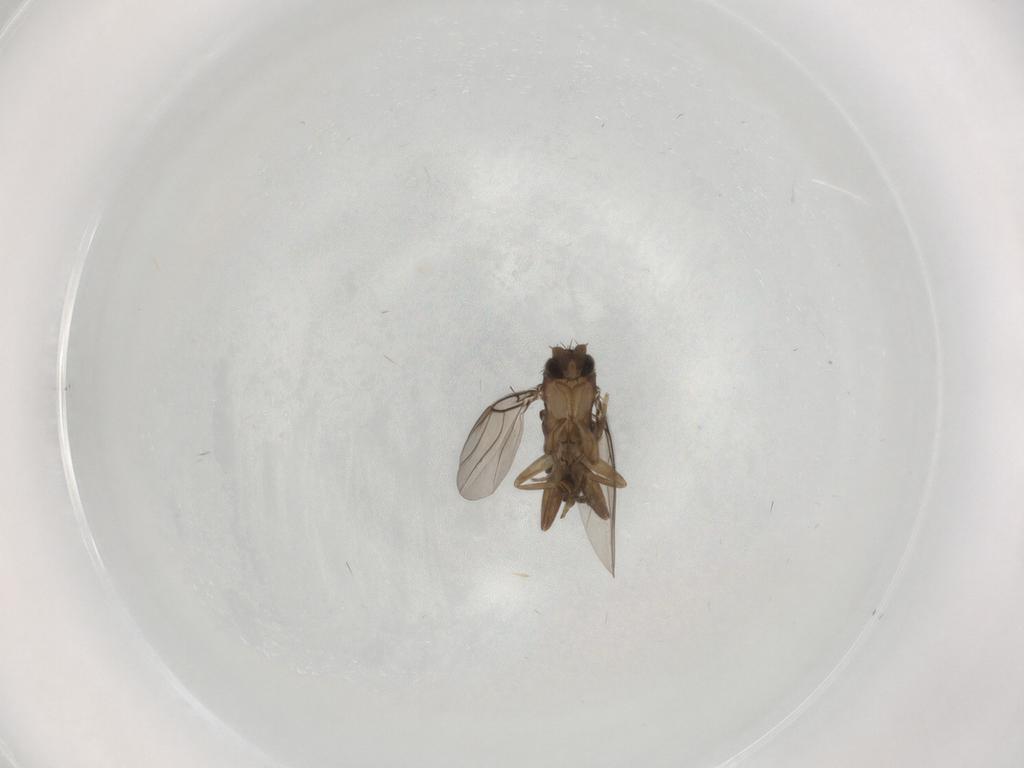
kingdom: Animalia
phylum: Arthropoda
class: Insecta
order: Diptera
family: Phoridae
